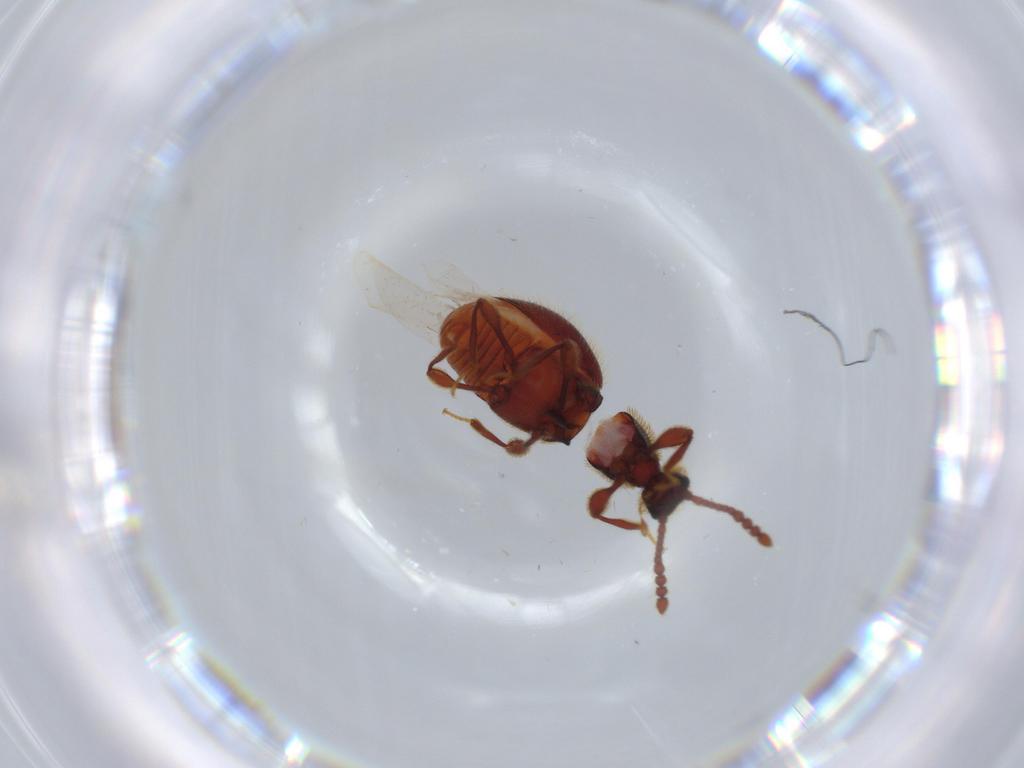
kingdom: Animalia
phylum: Arthropoda
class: Insecta
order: Coleoptera
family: Staphylinidae
